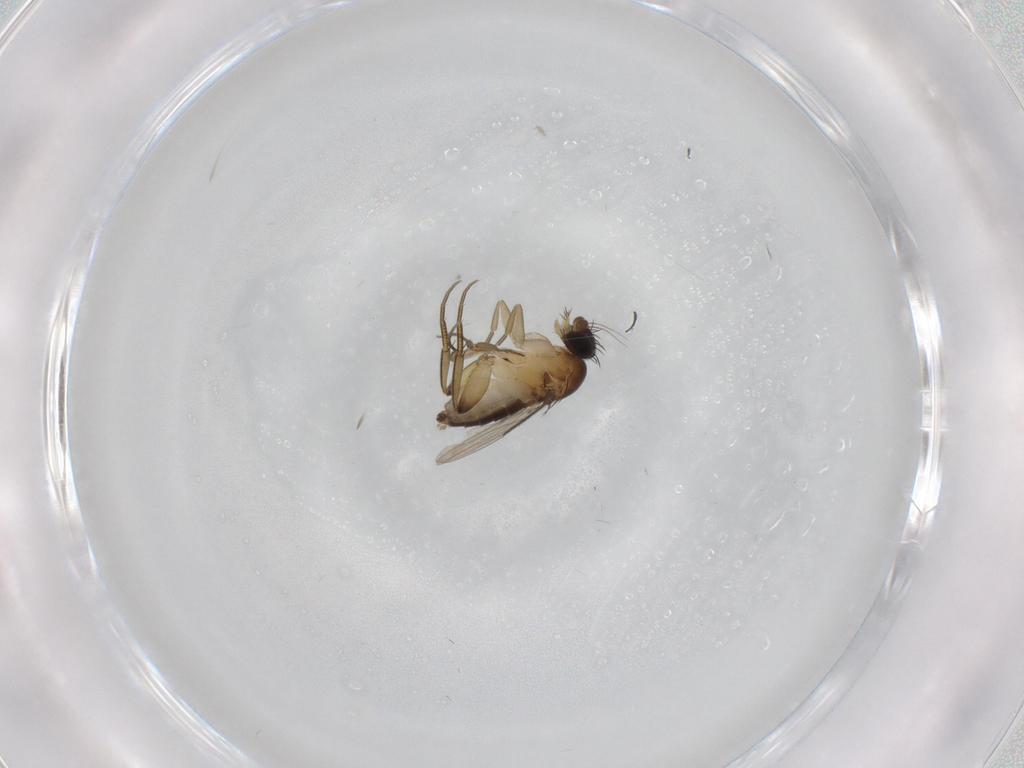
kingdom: Animalia
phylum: Arthropoda
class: Insecta
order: Diptera
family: Phoridae
